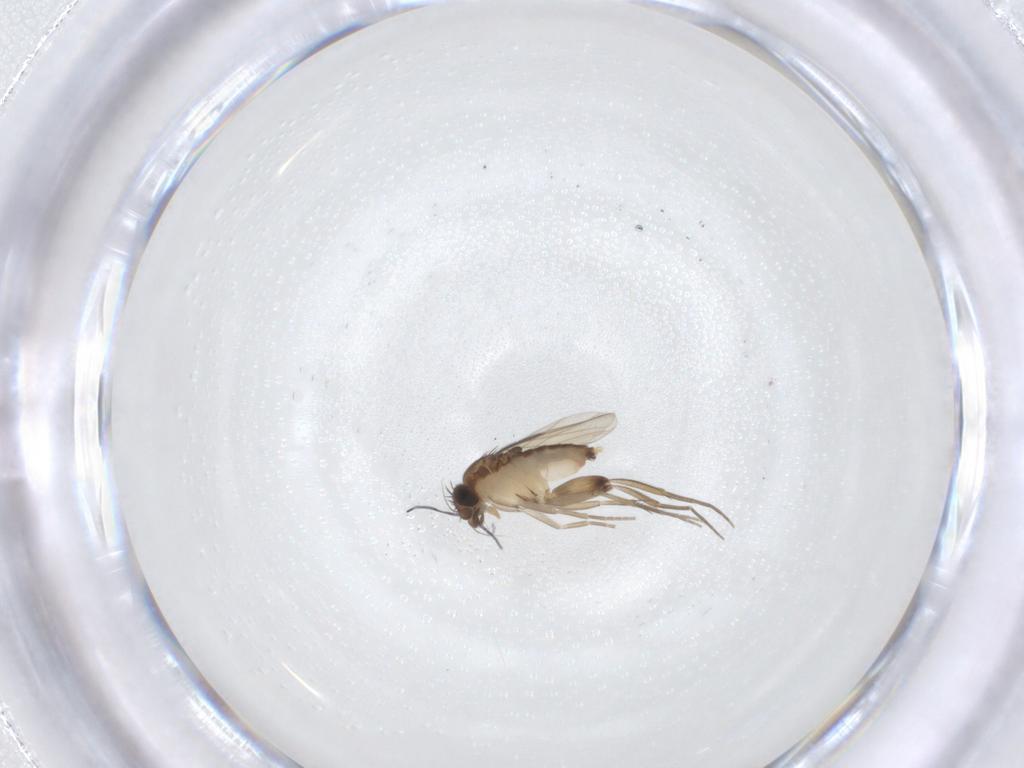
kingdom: Animalia
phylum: Arthropoda
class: Insecta
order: Diptera
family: Phoridae
